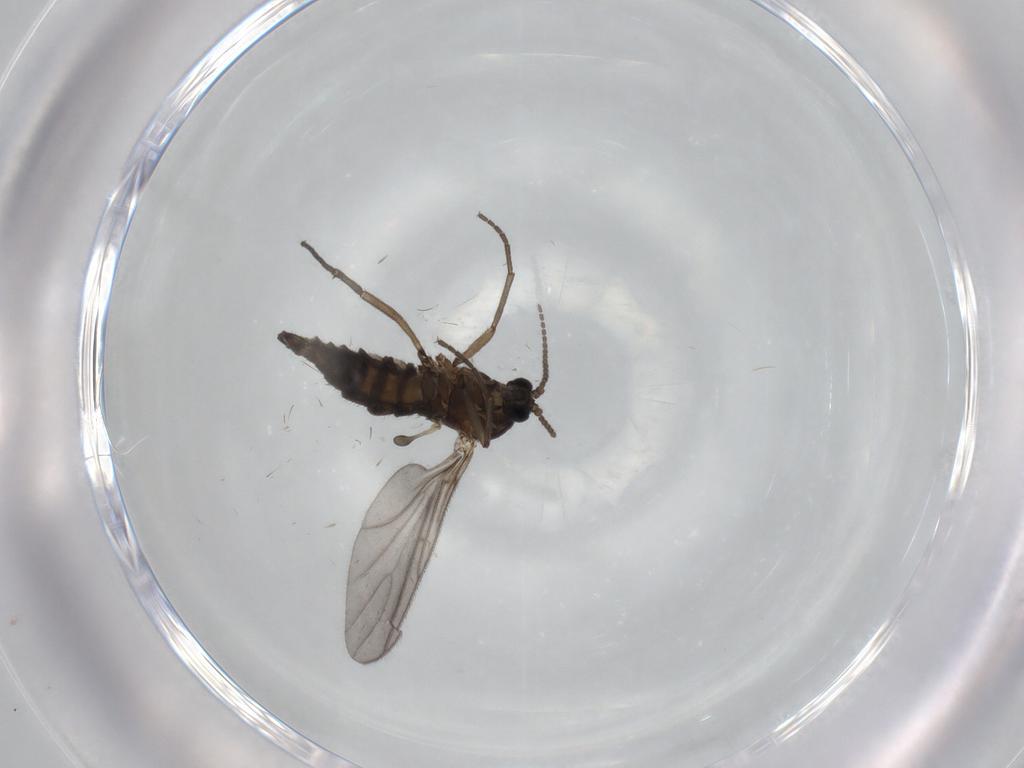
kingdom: Animalia
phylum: Arthropoda
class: Insecta
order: Diptera
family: Sciaridae
